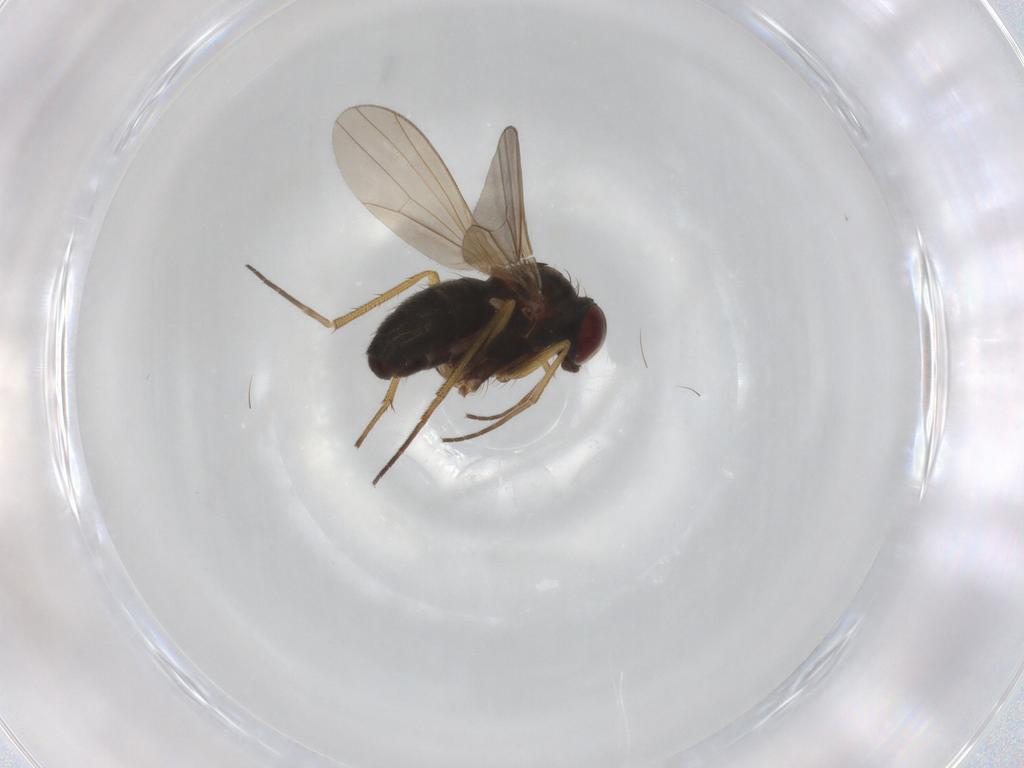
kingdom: Animalia
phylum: Arthropoda
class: Insecta
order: Diptera
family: Dolichopodidae
